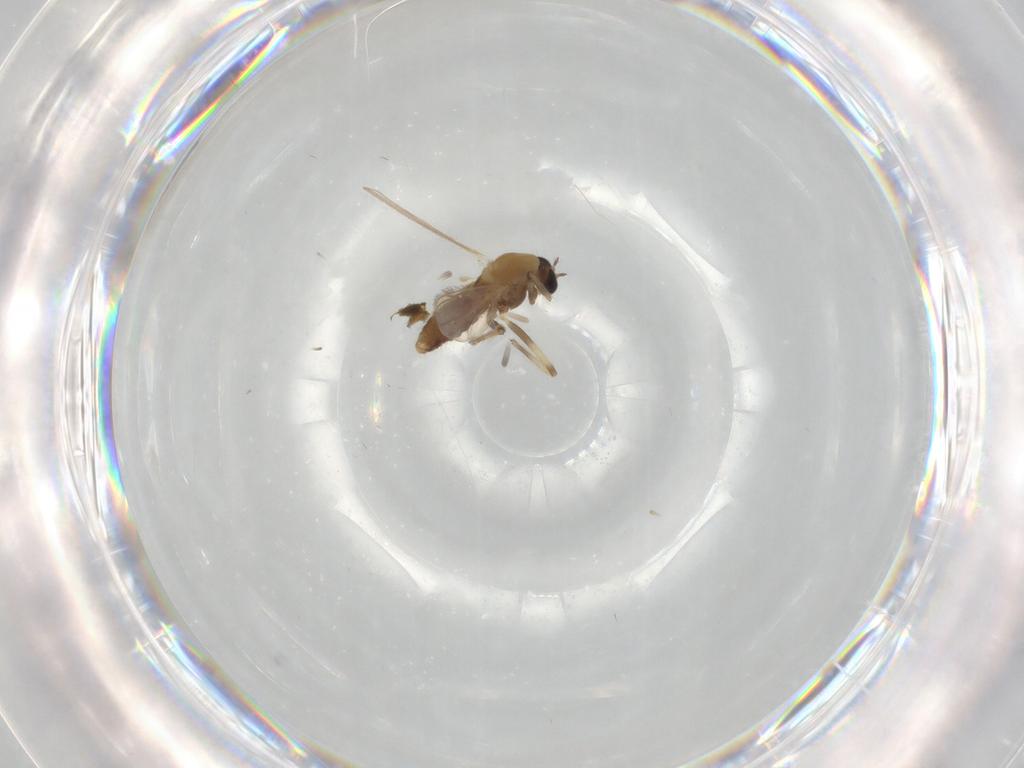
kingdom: Animalia
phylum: Arthropoda
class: Insecta
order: Diptera
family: Chironomidae
